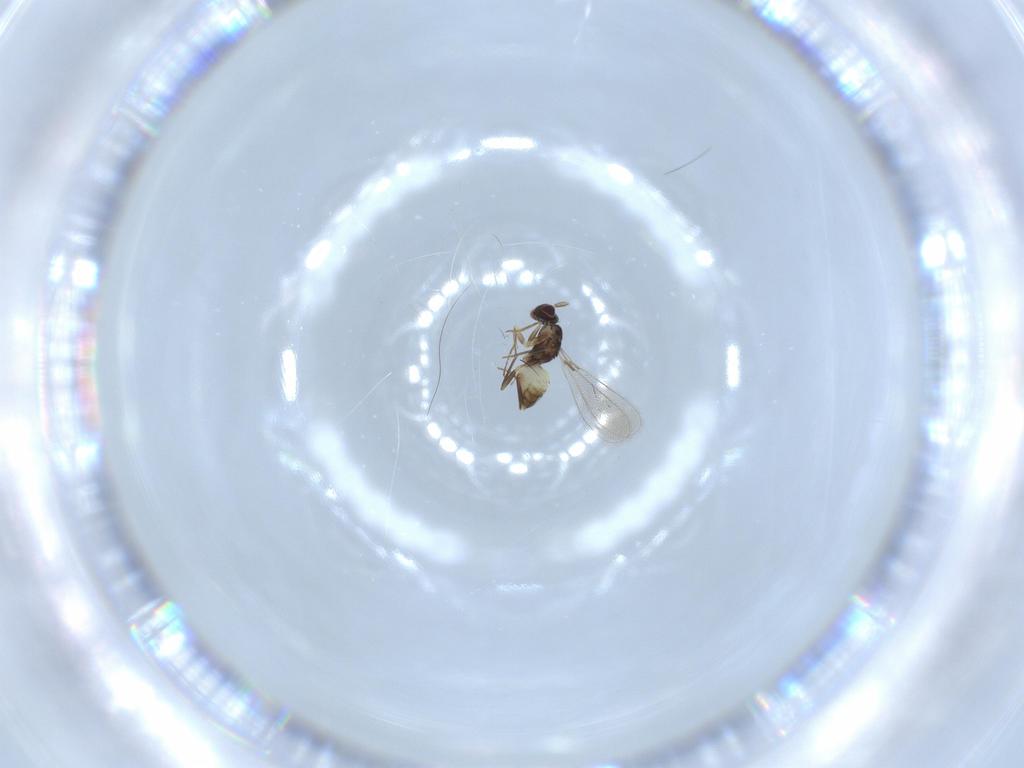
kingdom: Animalia
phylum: Arthropoda
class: Insecta
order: Hymenoptera
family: Mymaridae
